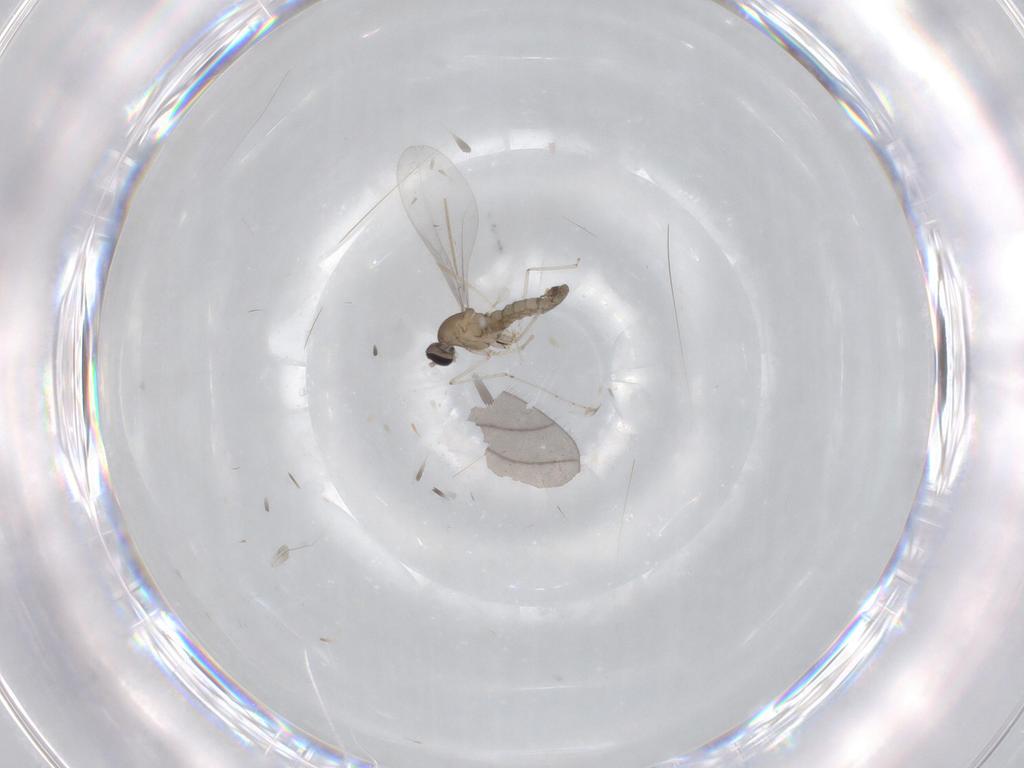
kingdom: Animalia
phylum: Arthropoda
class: Insecta
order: Diptera
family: Cecidomyiidae
